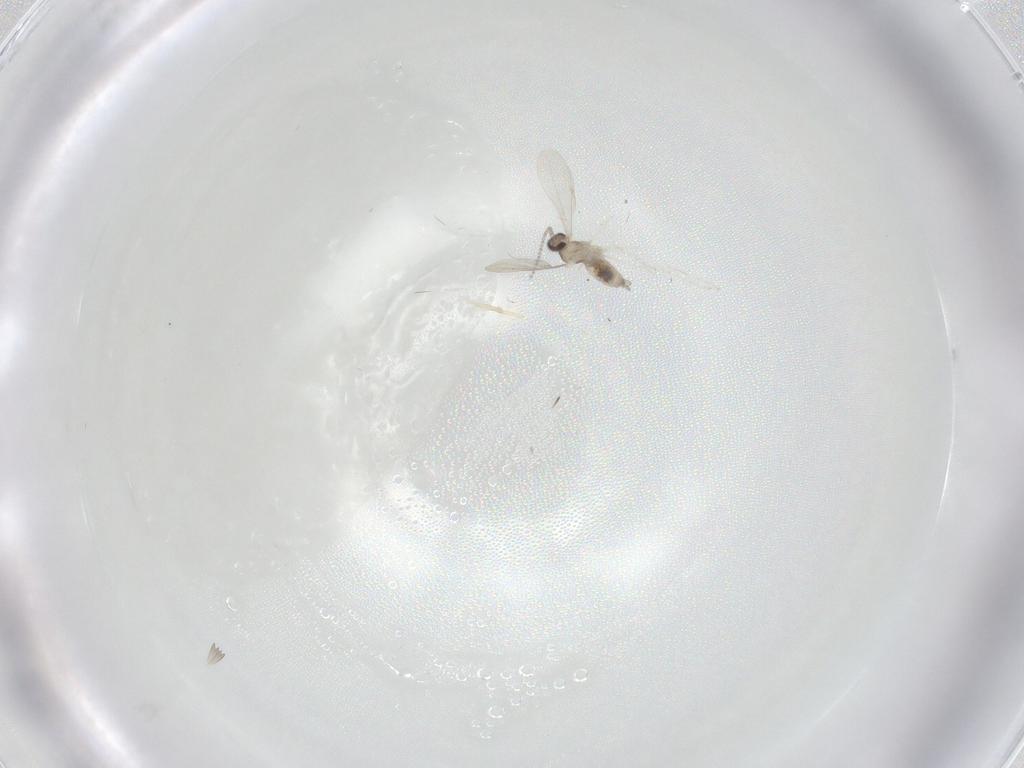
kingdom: Animalia
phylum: Arthropoda
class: Insecta
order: Diptera
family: Cecidomyiidae
